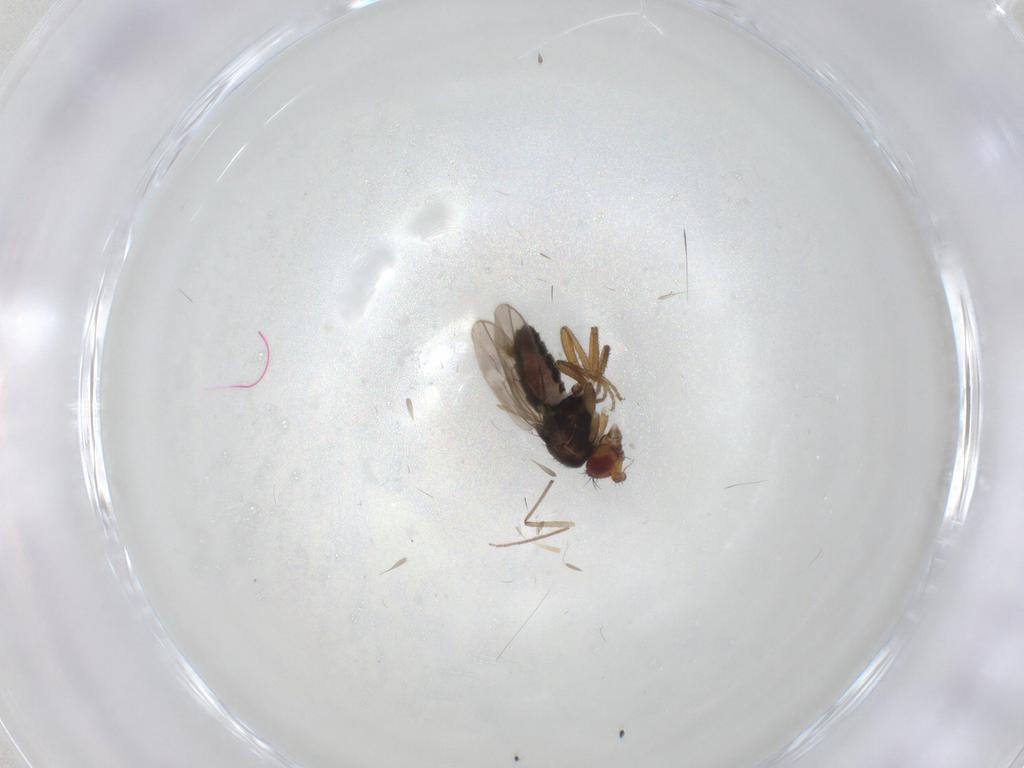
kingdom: Animalia
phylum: Arthropoda
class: Insecta
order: Diptera
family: Sphaeroceridae
